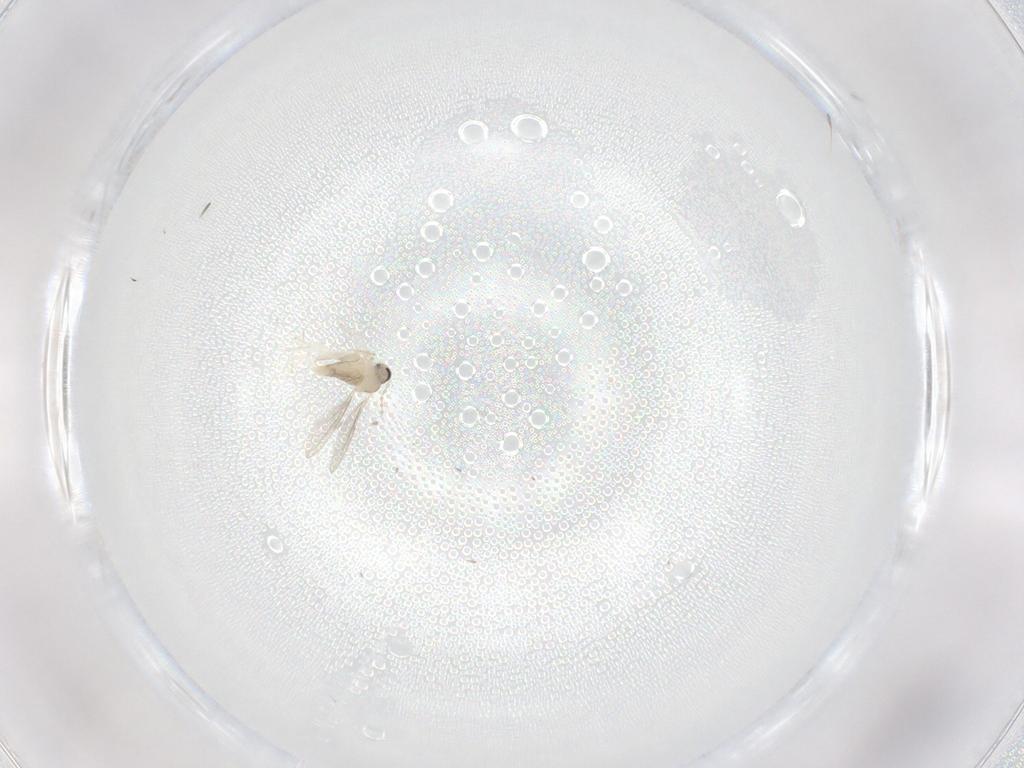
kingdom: Animalia
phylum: Arthropoda
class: Insecta
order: Diptera
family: Cecidomyiidae
